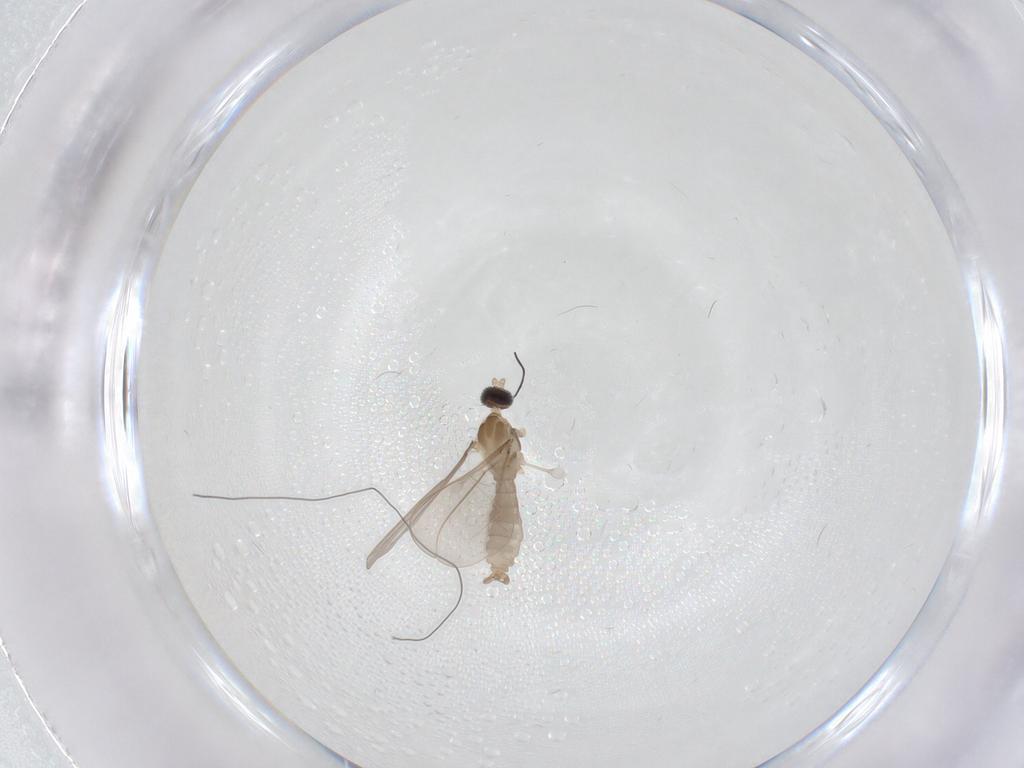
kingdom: Animalia
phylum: Arthropoda
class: Insecta
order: Diptera
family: Cecidomyiidae
